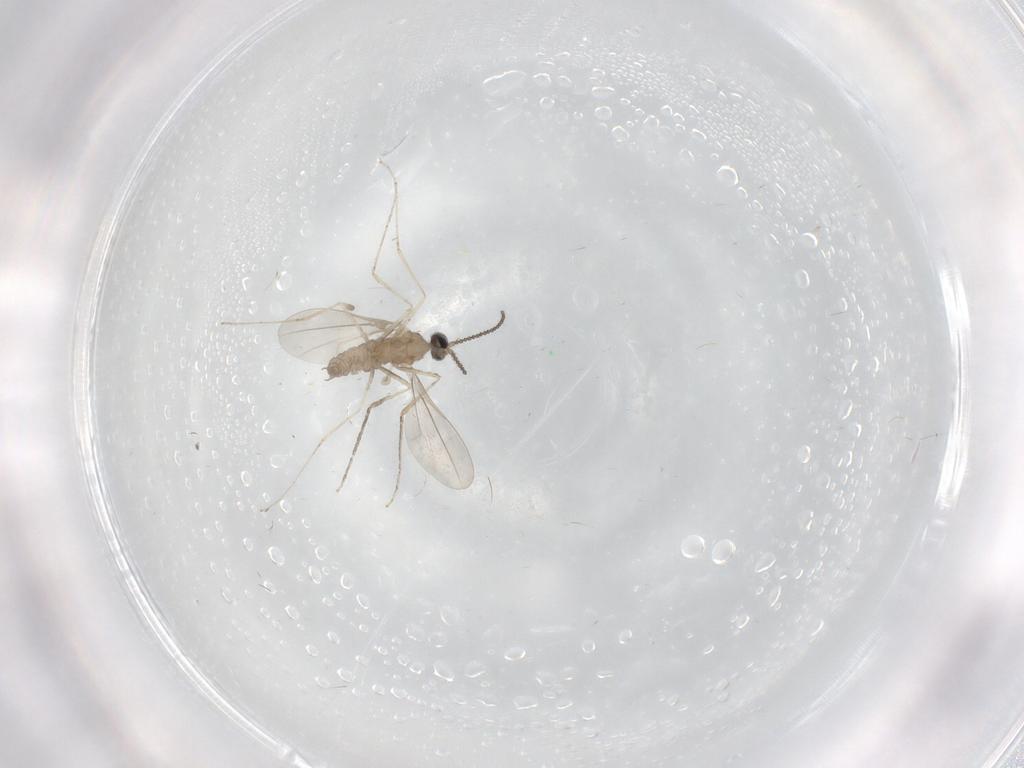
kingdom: Animalia
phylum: Arthropoda
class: Insecta
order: Diptera
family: Cecidomyiidae
